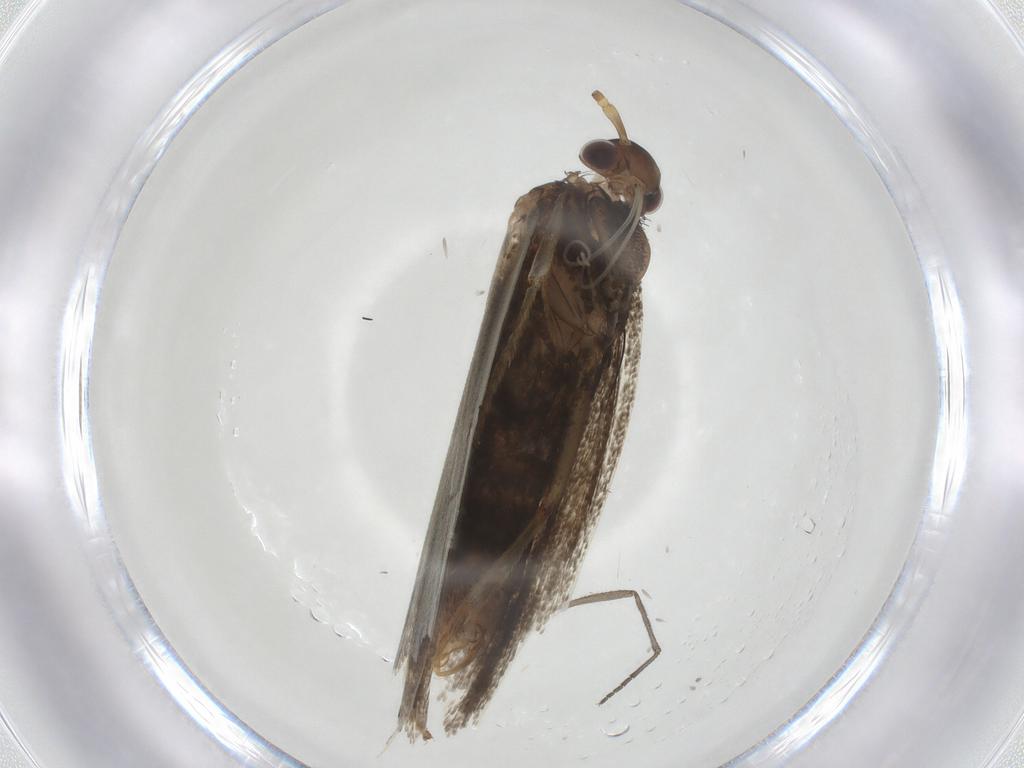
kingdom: Animalia
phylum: Arthropoda
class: Insecta
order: Lepidoptera
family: Lecithoceridae
